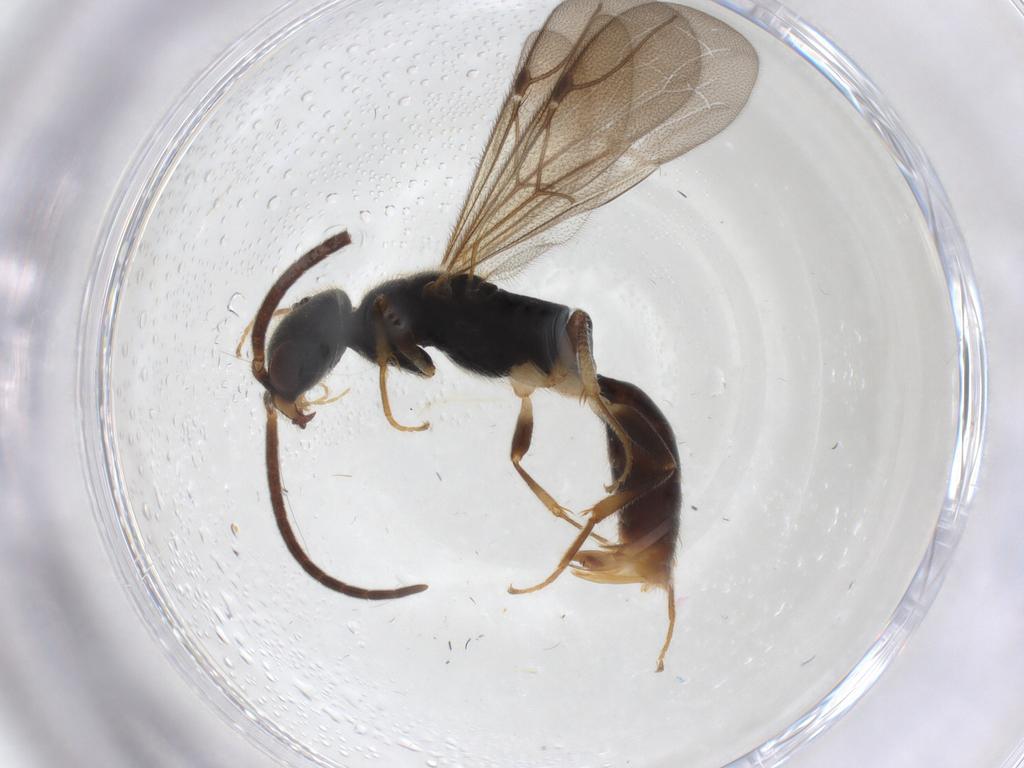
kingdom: Animalia
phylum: Arthropoda
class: Insecta
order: Hymenoptera
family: Bethylidae
